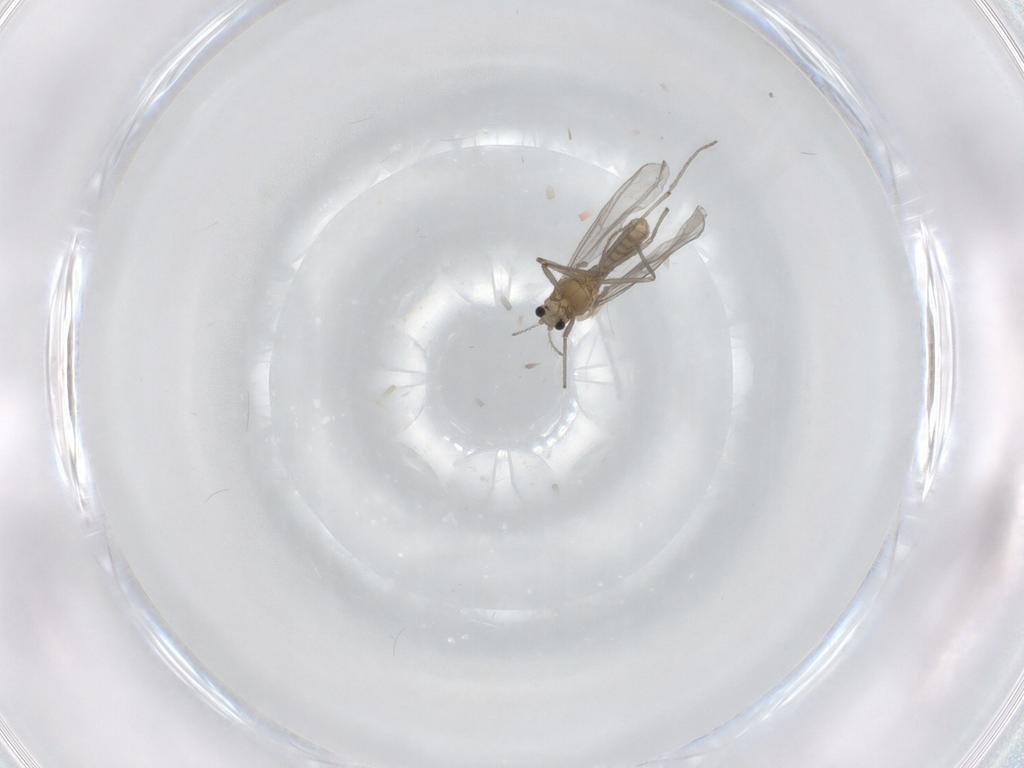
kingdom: Animalia
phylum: Arthropoda
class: Insecta
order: Diptera
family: Chironomidae
